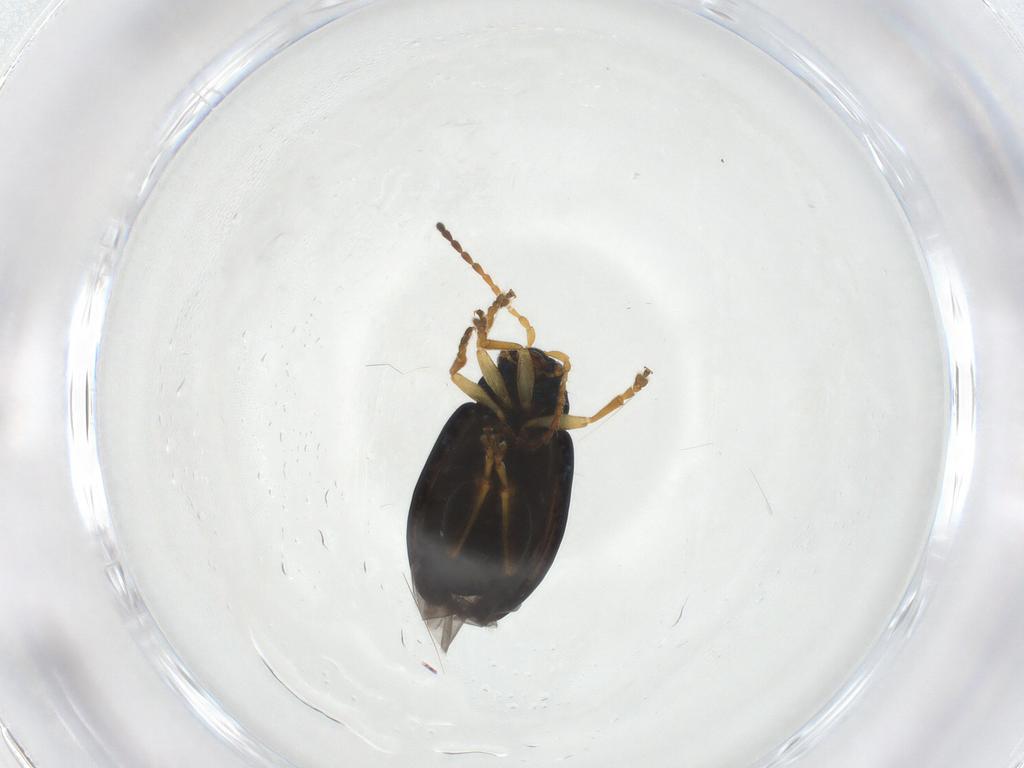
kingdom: Animalia
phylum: Arthropoda
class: Insecta
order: Coleoptera
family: Chrysomelidae
